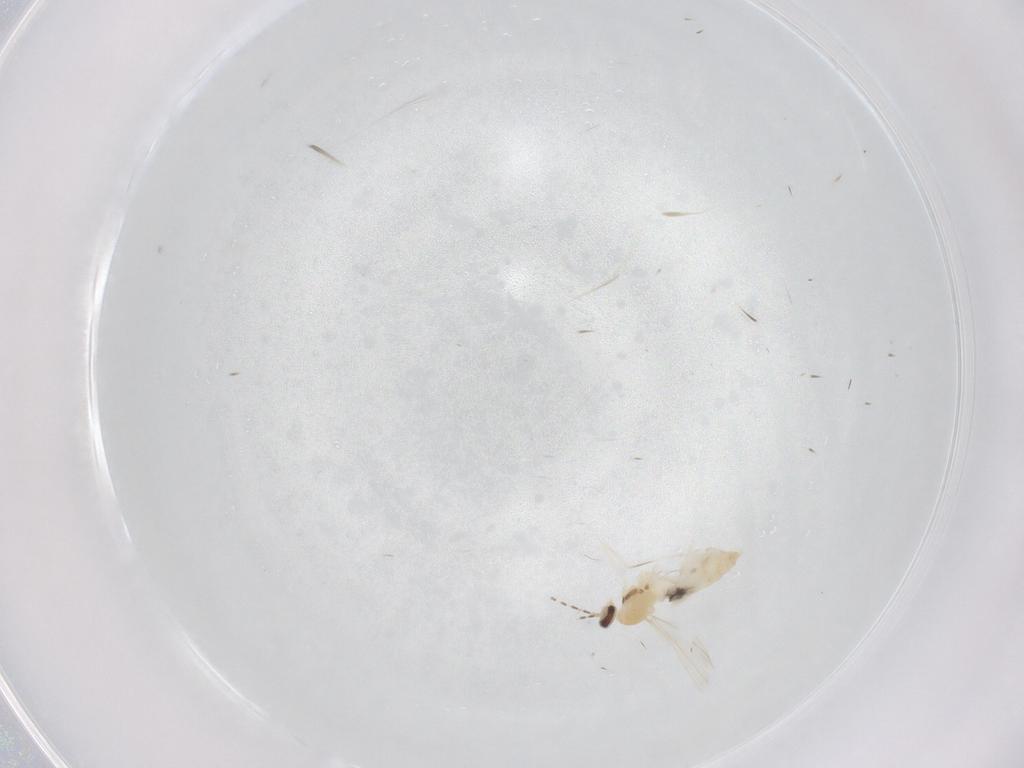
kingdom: Animalia
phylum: Arthropoda
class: Insecta
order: Diptera
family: Cecidomyiidae
